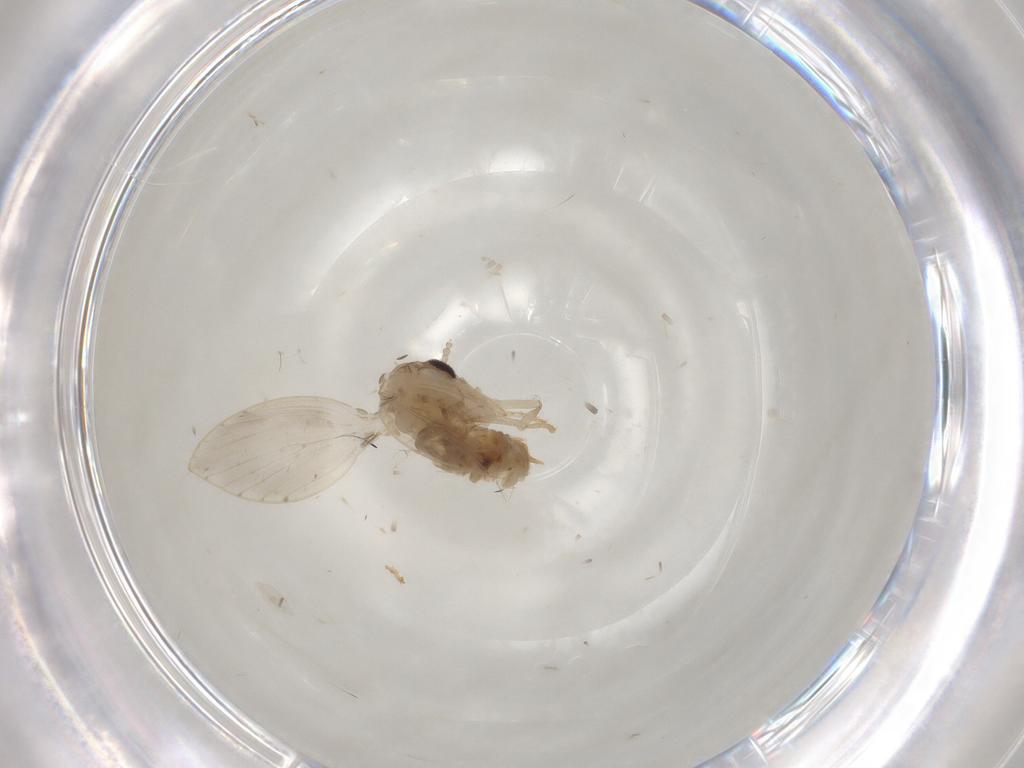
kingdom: Animalia
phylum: Arthropoda
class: Insecta
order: Diptera
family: Psychodidae
